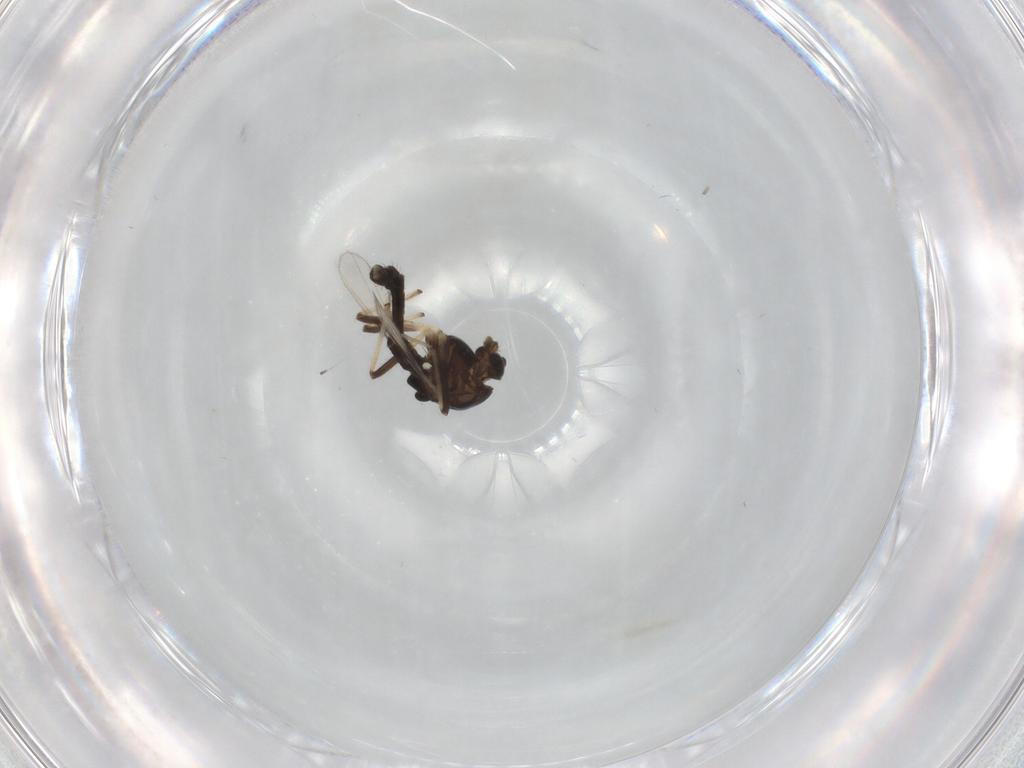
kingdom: Animalia
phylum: Arthropoda
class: Insecta
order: Diptera
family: Chironomidae
